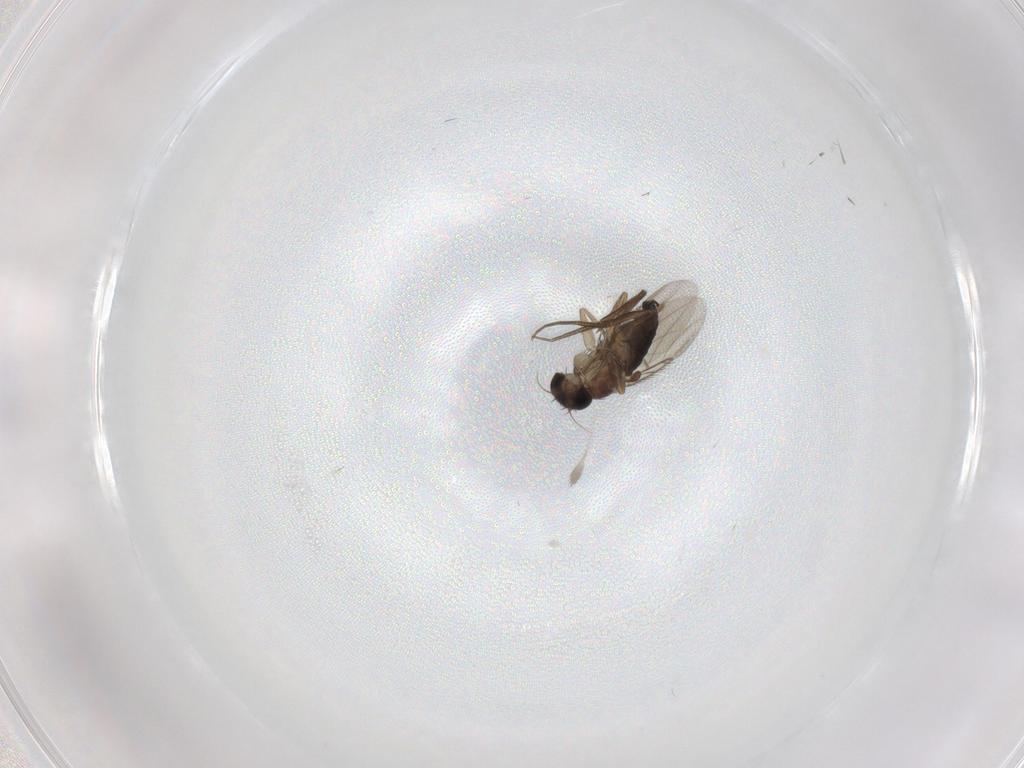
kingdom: Animalia
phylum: Arthropoda
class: Insecta
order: Diptera
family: Phoridae
